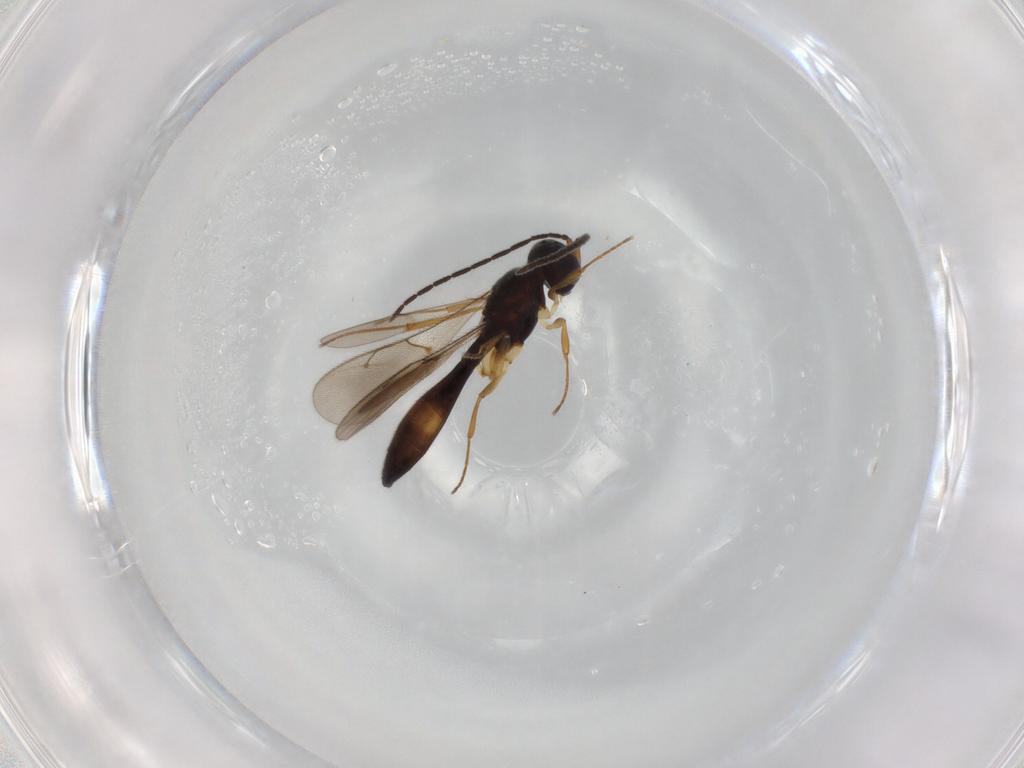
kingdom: Animalia
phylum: Arthropoda
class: Insecta
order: Hymenoptera
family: Scelionidae
